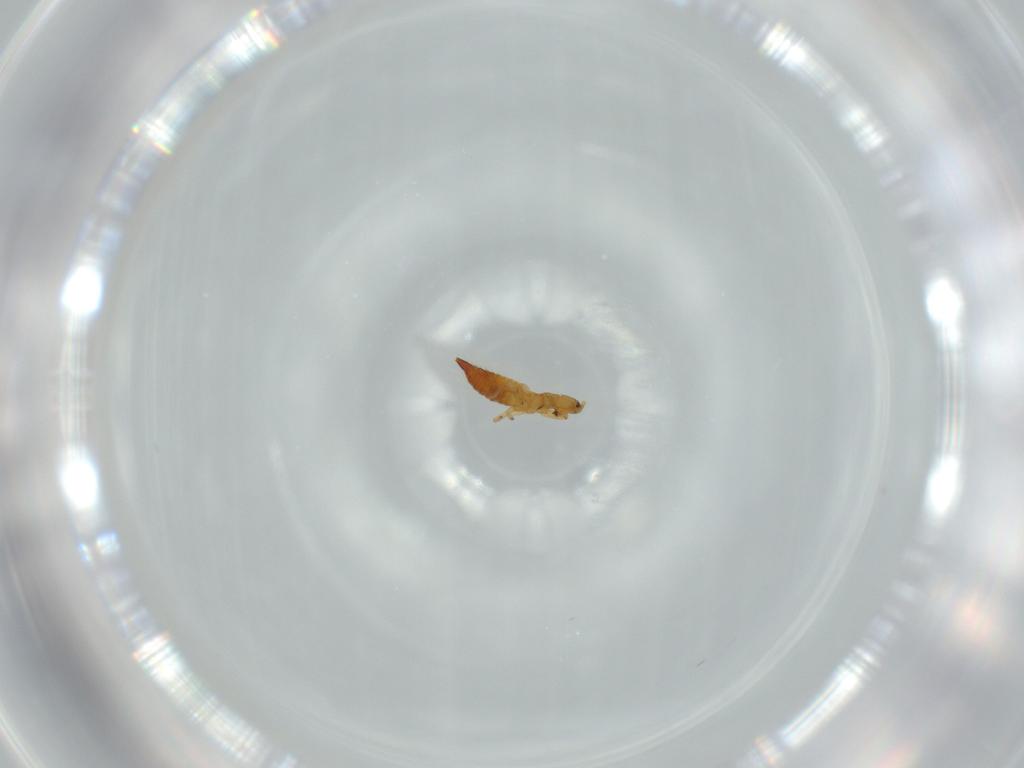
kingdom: Animalia
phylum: Arthropoda
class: Insecta
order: Thysanoptera
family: Phlaeothripidae
